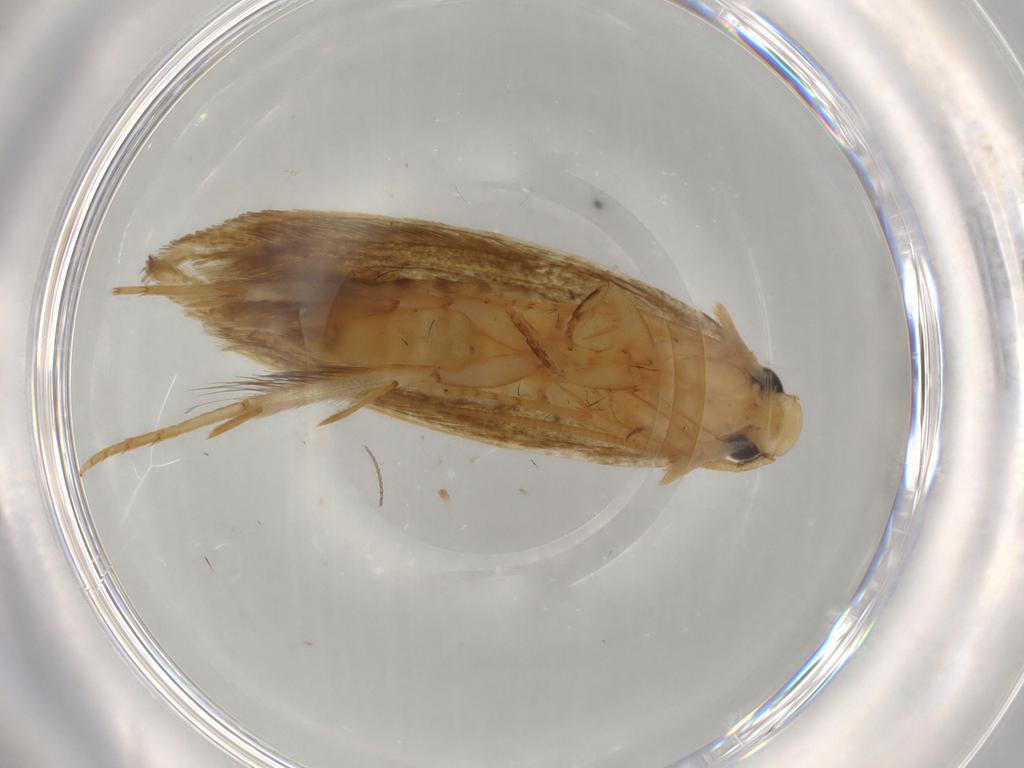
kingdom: Animalia
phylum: Arthropoda
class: Insecta
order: Lepidoptera
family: Tineidae
